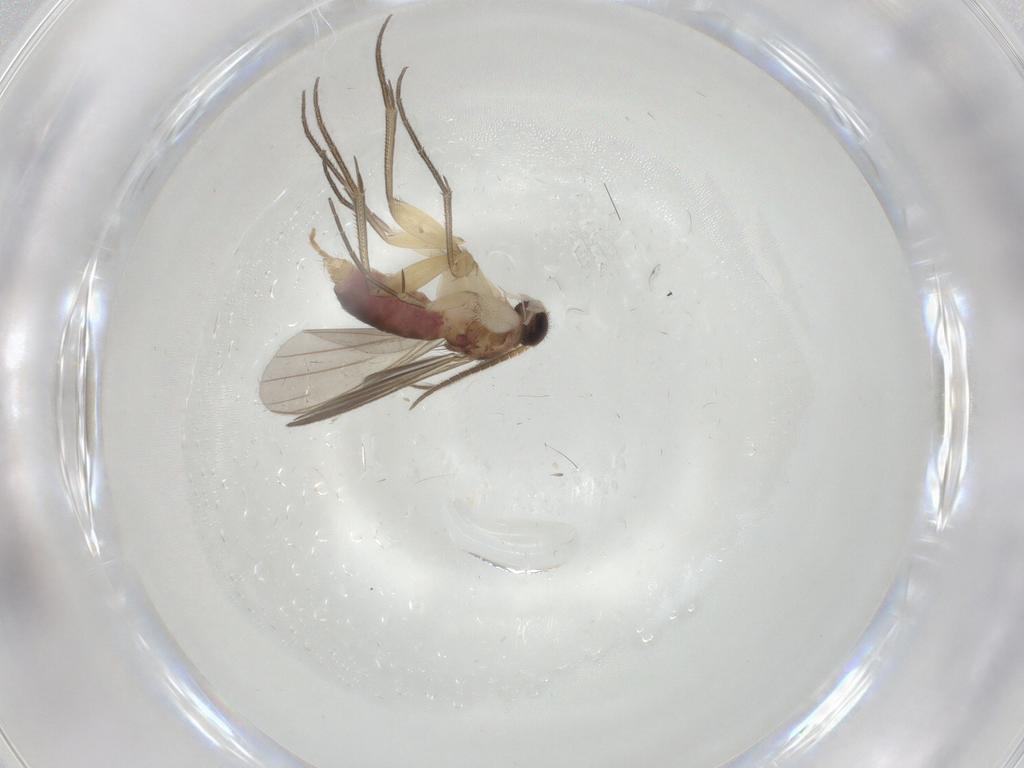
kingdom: Animalia
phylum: Arthropoda
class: Insecta
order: Diptera
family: Mycetophilidae
